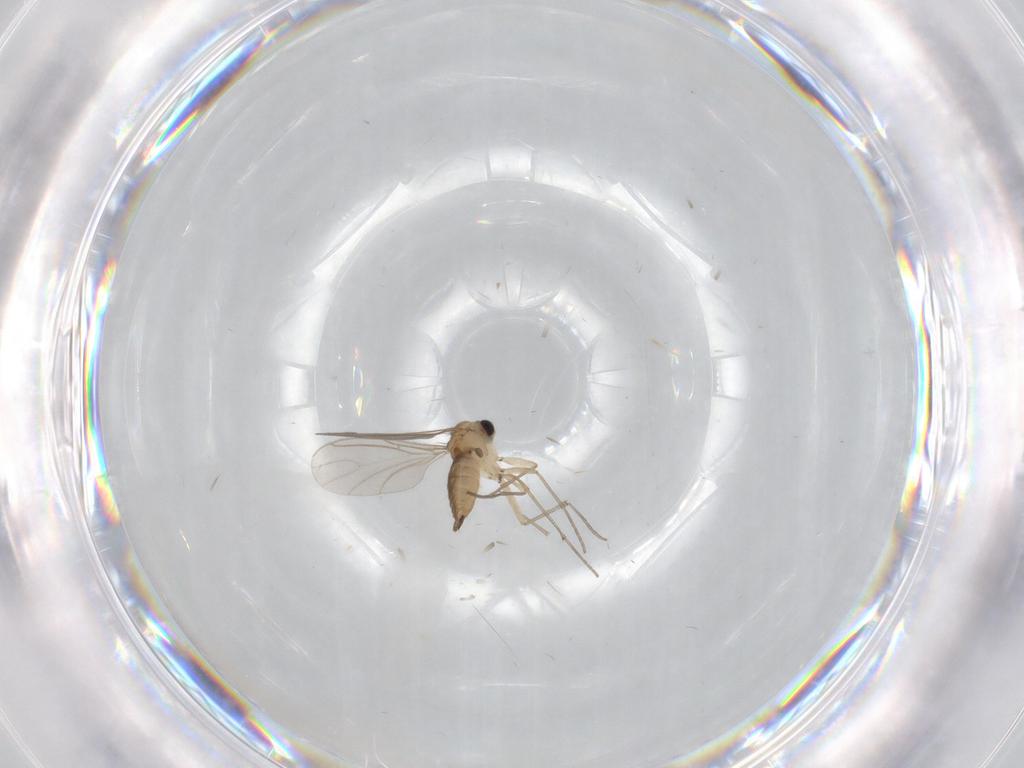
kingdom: Animalia
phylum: Arthropoda
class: Insecta
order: Diptera
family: Sciaridae
